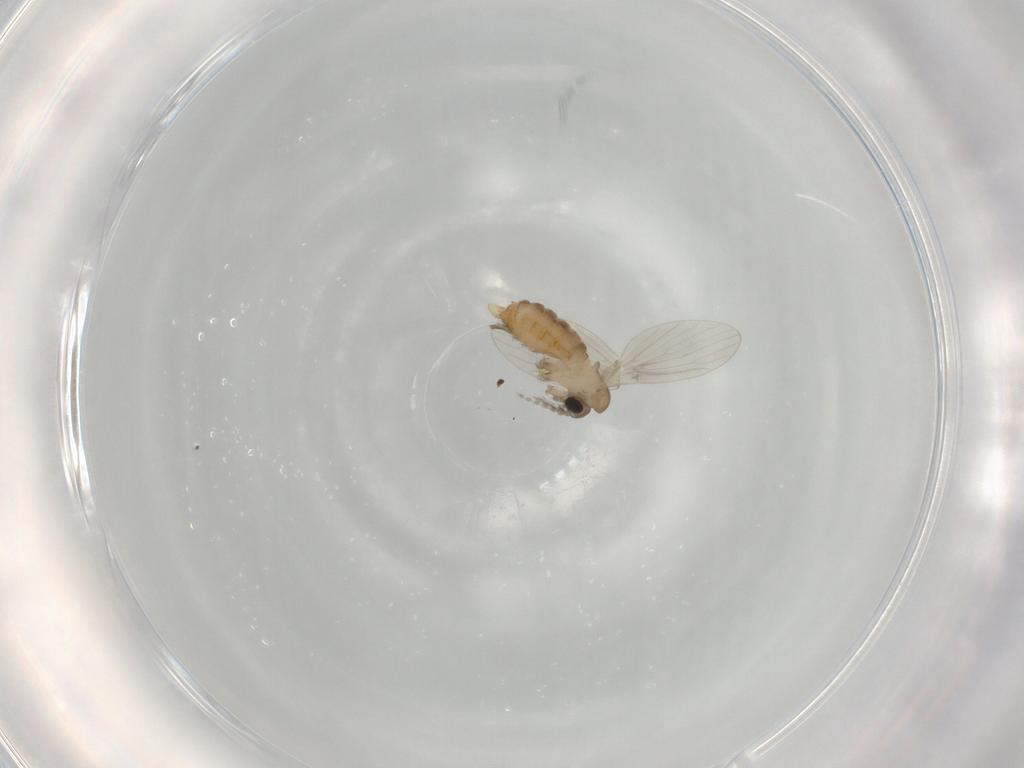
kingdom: Animalia
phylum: Arthropoda
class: Insecta
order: Diptera
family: Psychodidae
